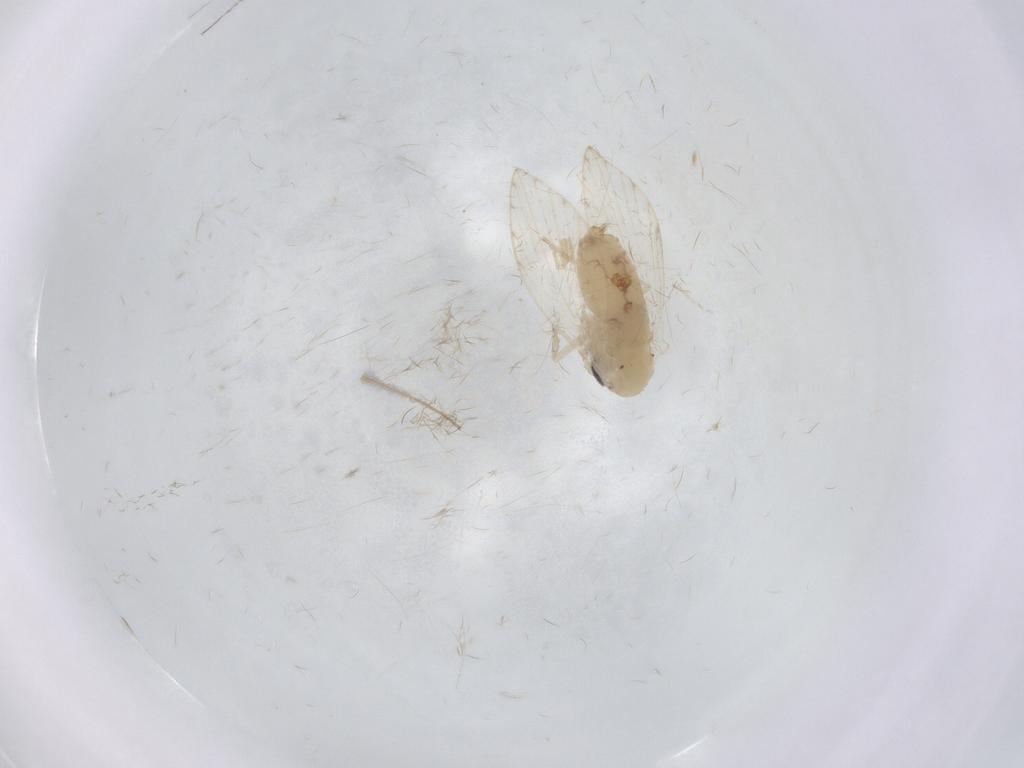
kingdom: Animalia
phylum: Arthropoda
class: Insecta
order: Diptera
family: Psychodidae
